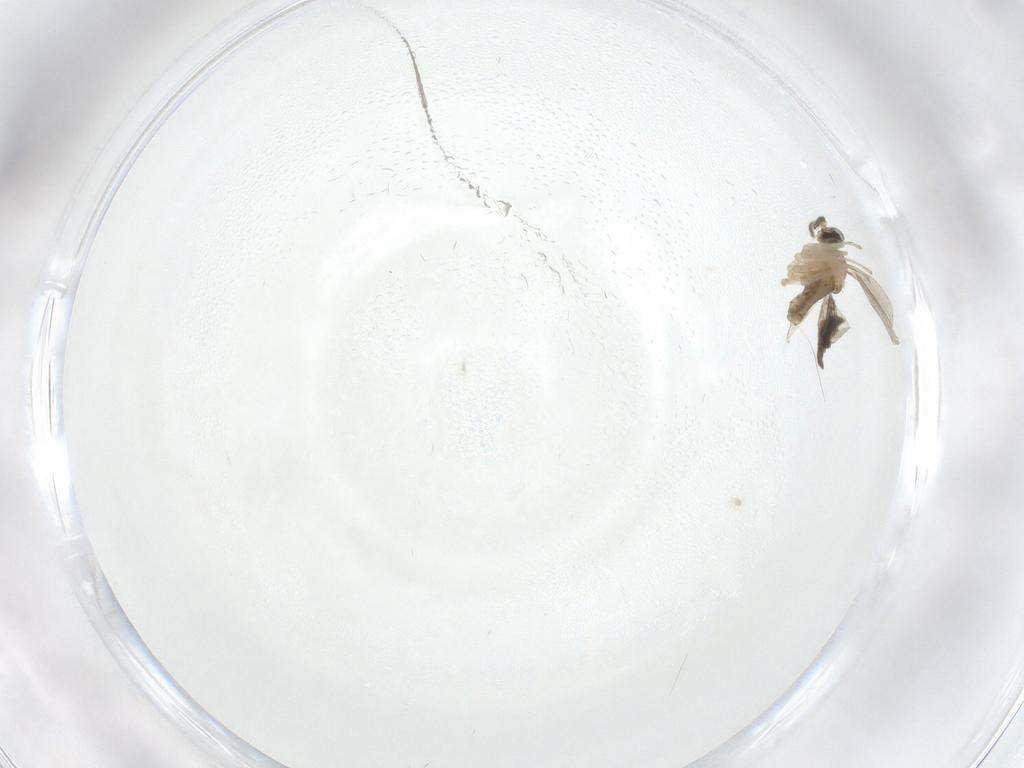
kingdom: Animalia
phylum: Arthropoda
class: Insecta
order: Diptera
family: Cecidomyiidae
